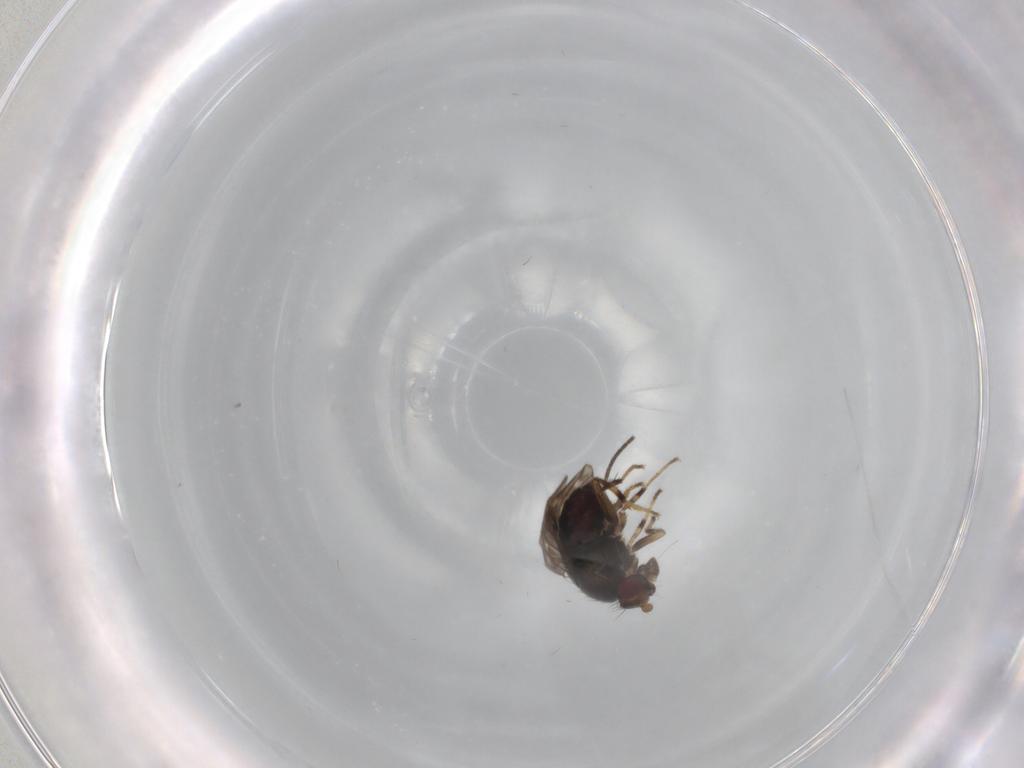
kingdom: Animalia
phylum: Arthropoda
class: Insecta
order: Diptera
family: Sphaeroceridae
